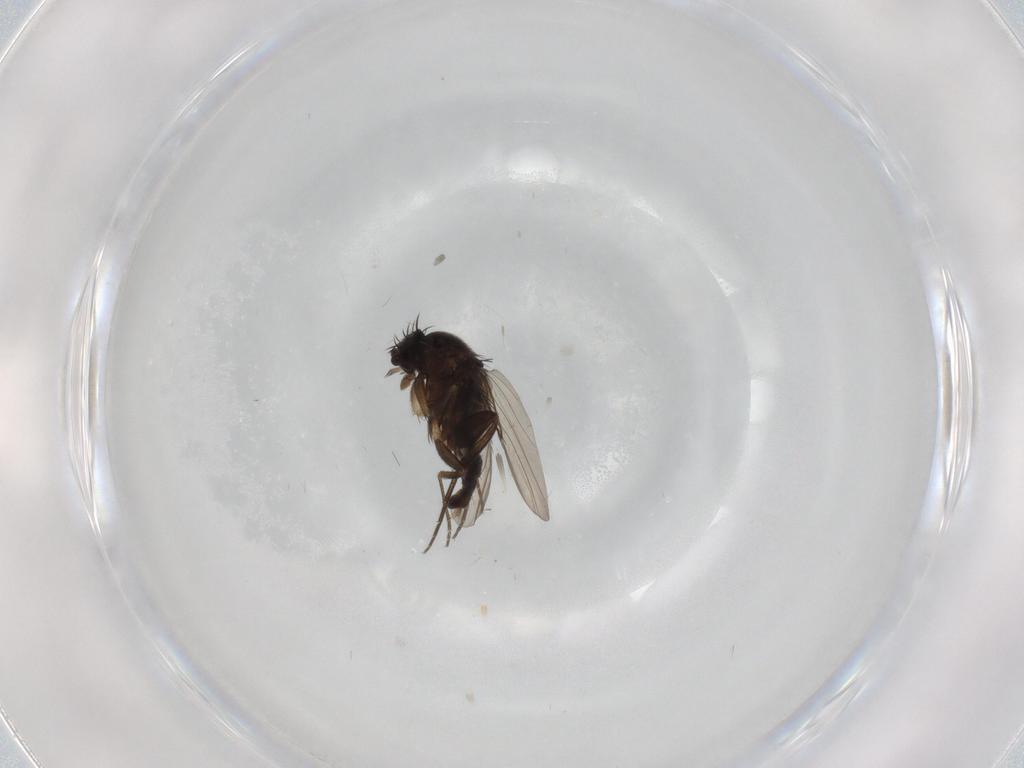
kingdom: Animalia
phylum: Arthropoda
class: Insecta
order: Diptera
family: Phoridae
